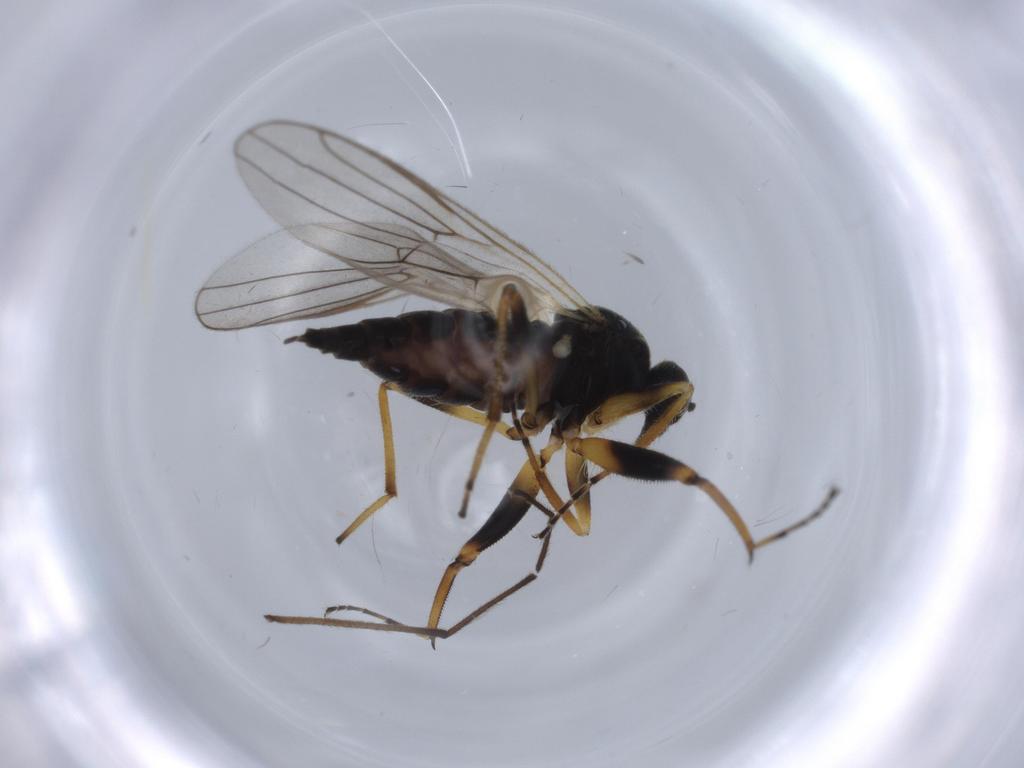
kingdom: Animalia
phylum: Arthropoda
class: Insecta
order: Diptera
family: Hybotidae
